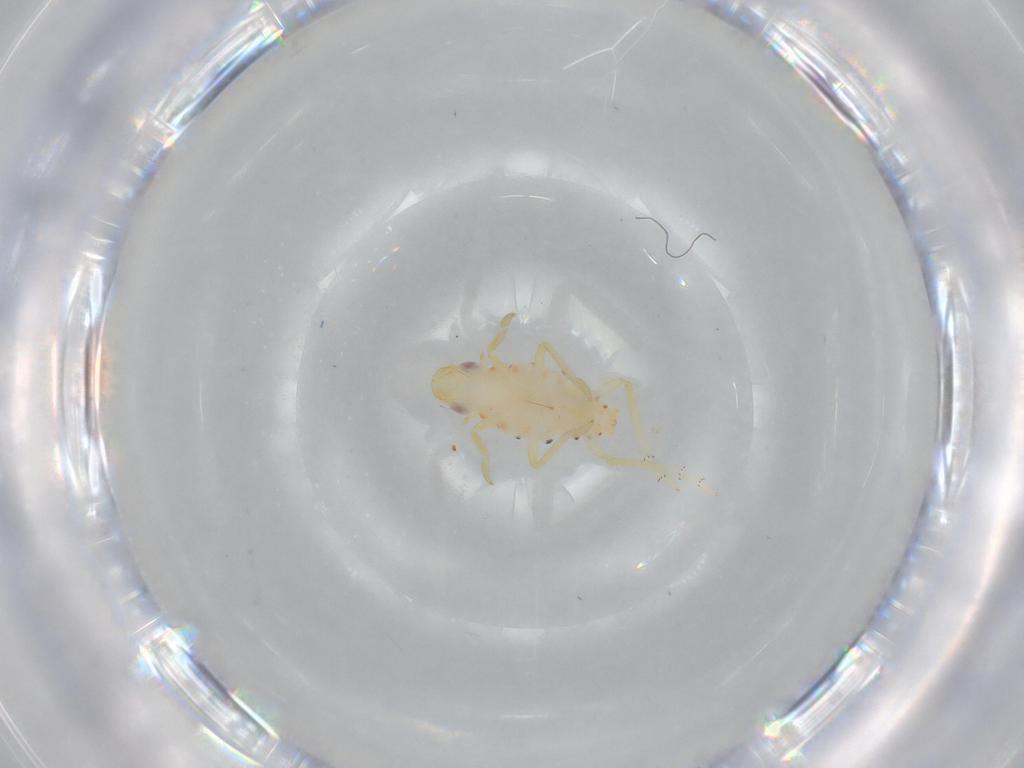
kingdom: Animalia
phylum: Arthropoda
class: Insecta
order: Hemiptera
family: Tropiduchidae
